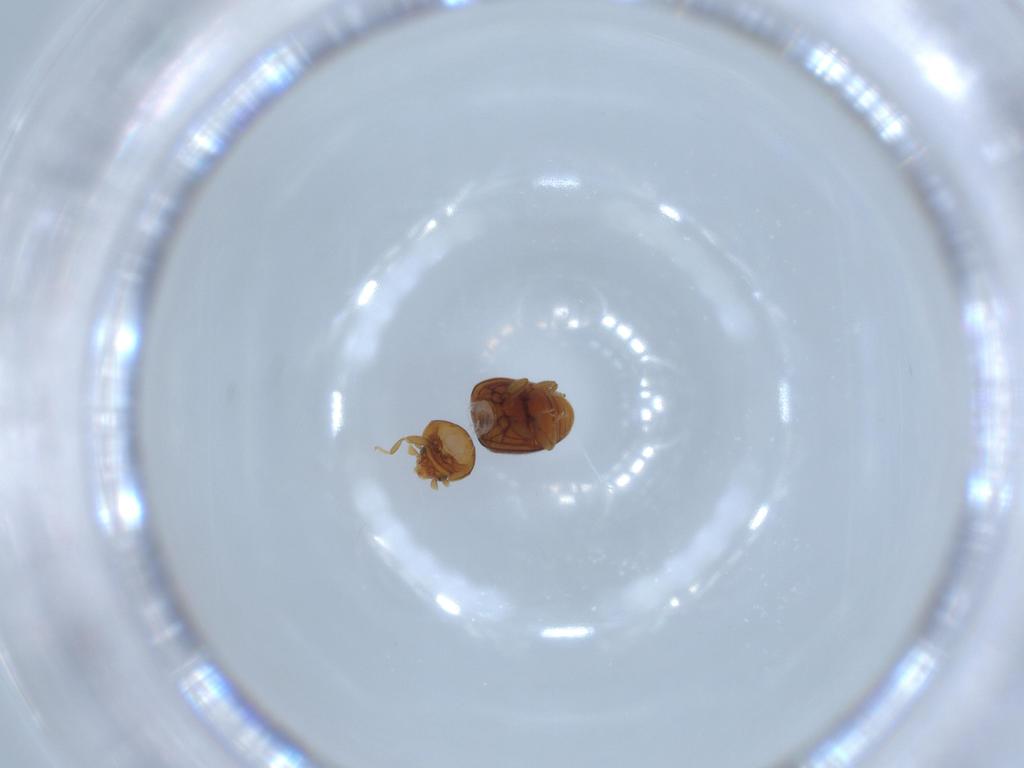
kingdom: Animalia
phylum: Arthropoda
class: Insecta
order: Coleoptera
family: Coccinellidae
